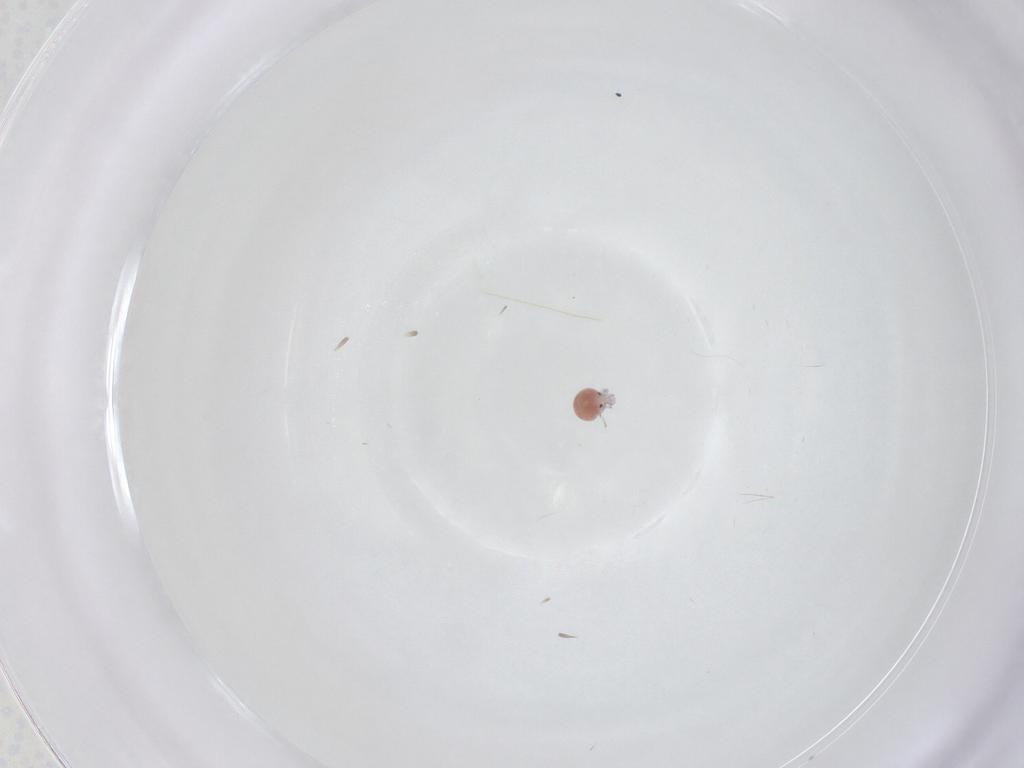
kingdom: Animalia
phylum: Arthropoda
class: Arachnida
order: Trombidiformes
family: Pionidae
